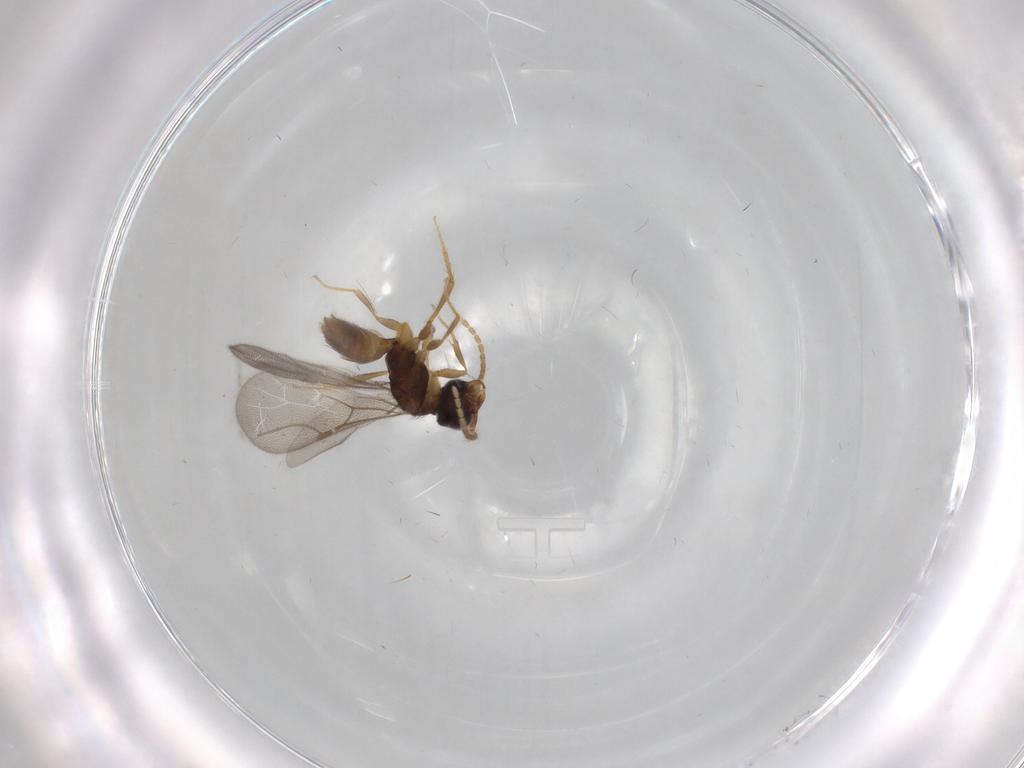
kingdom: Animalia
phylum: Arthropoda
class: Insecta
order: Hymenoptera
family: Bethylidae
